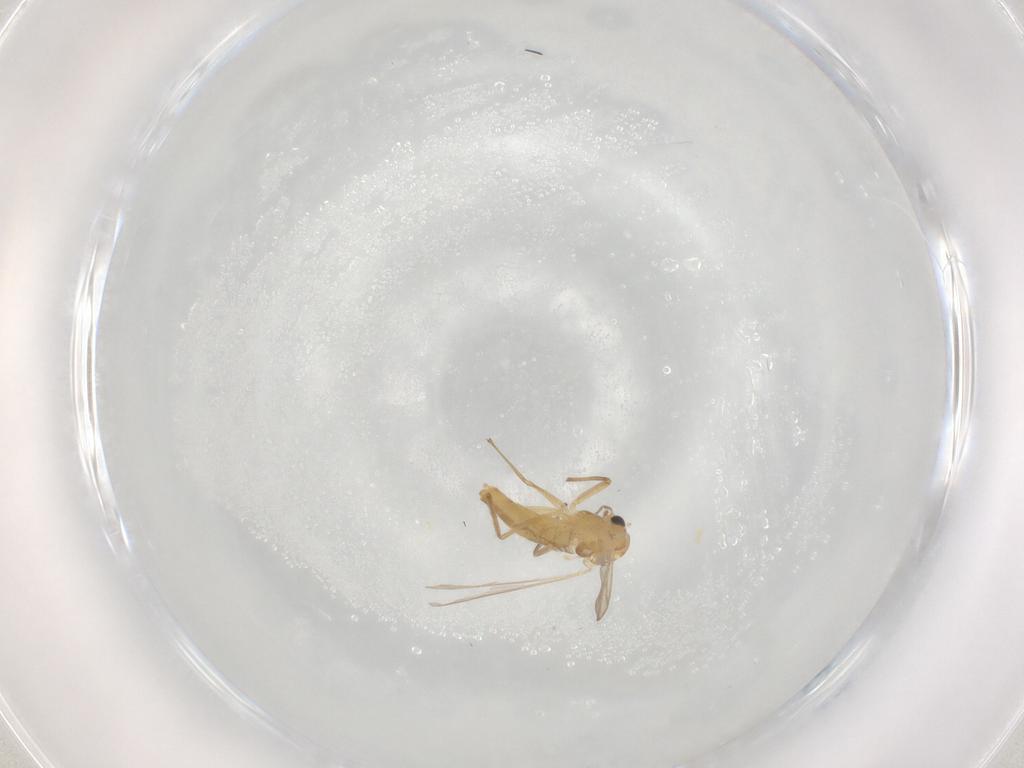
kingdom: Animalia
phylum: Arthropoda
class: Insecta
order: Diptera
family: Chironomidae
